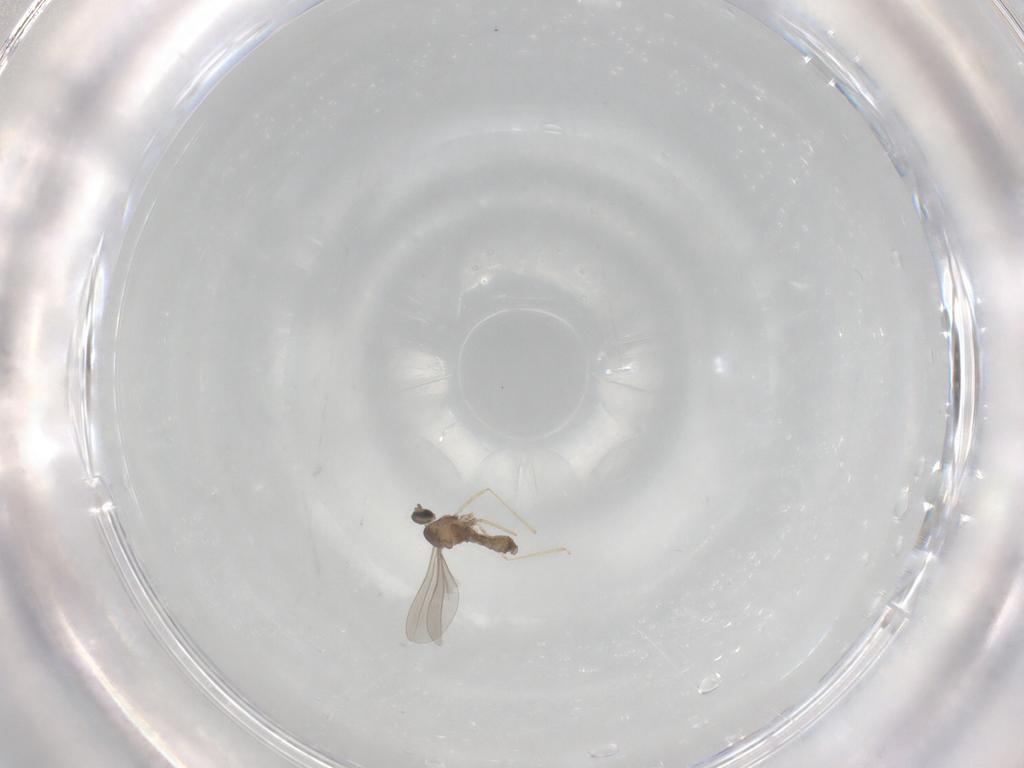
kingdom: Animalia
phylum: Arthropoda
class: Insecta
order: Diptera
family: Cecidomyiidae
